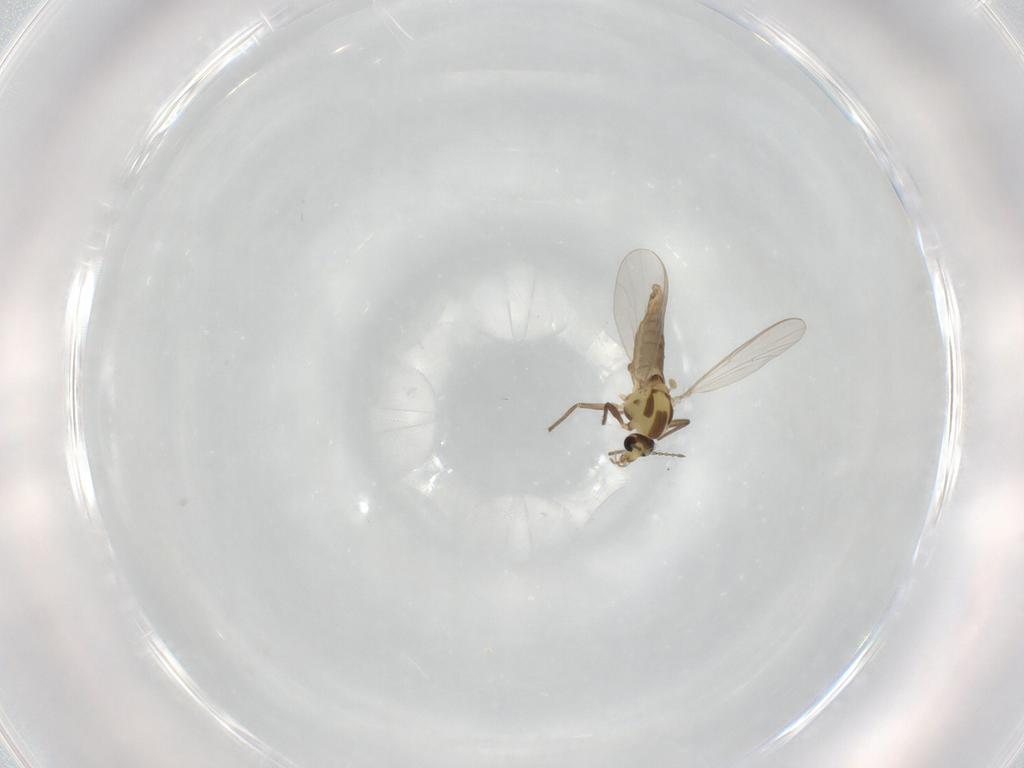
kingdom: Animalia
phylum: Arthropoda
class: Insecta
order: Diptera
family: Chironomidae
